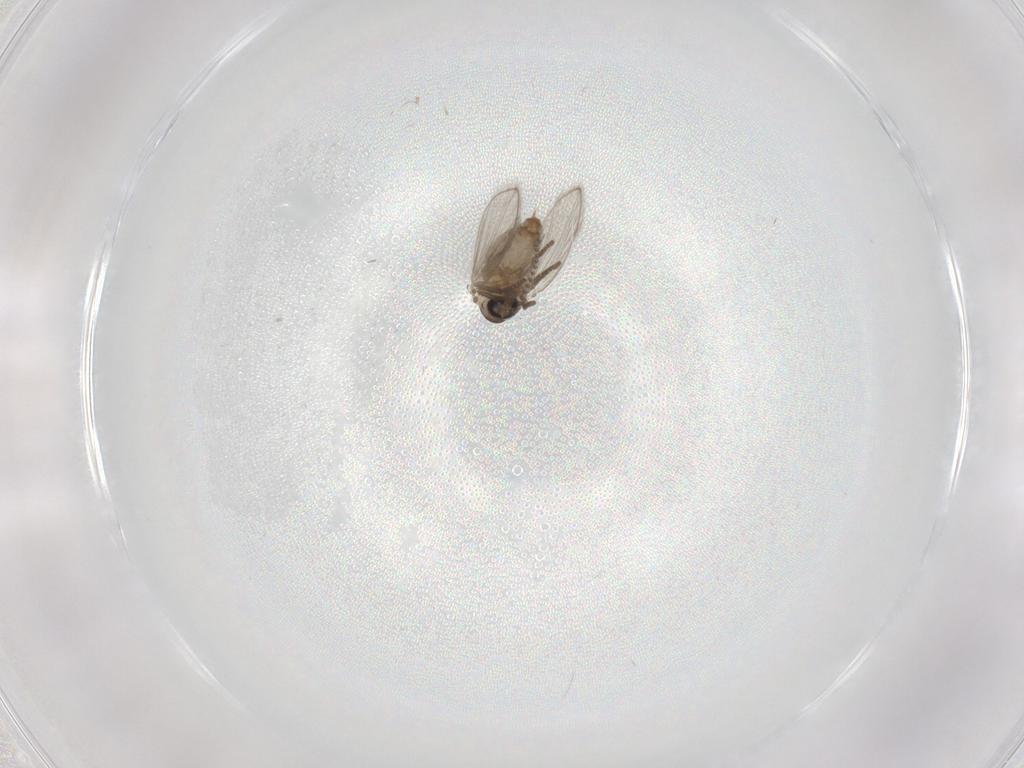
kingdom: Animalia
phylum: Arthropoda
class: Insecta
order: Diptera
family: Psychodidae
